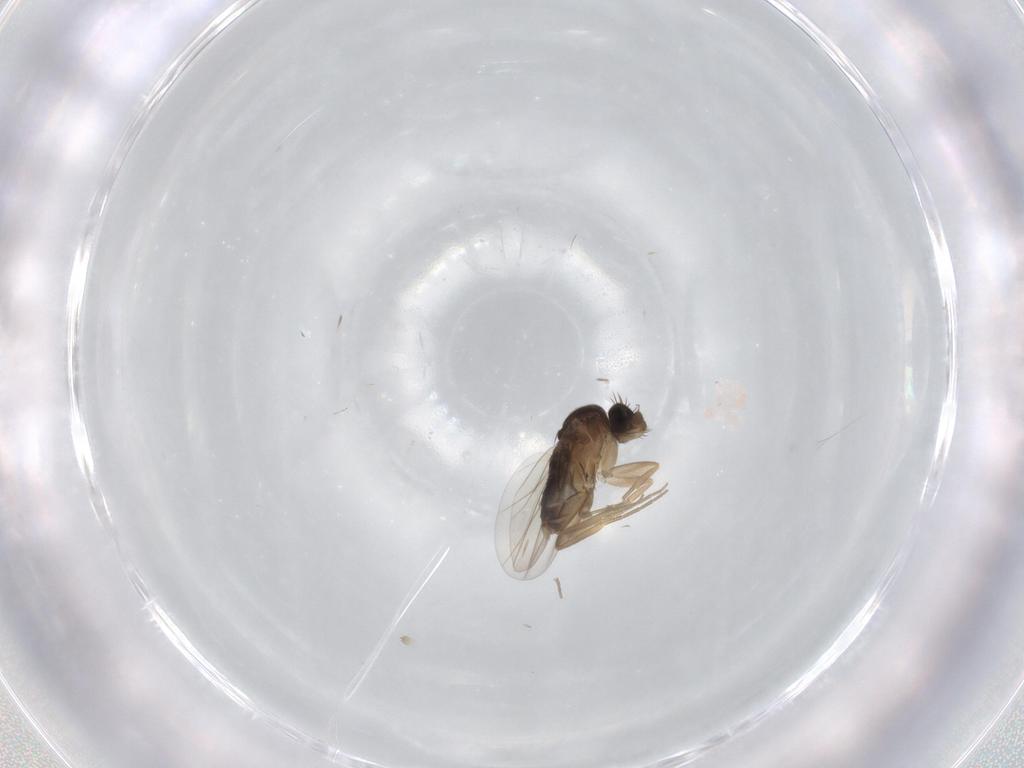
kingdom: Animalia
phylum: Arthropoda
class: Insecta
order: Diptera
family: Phoridae
